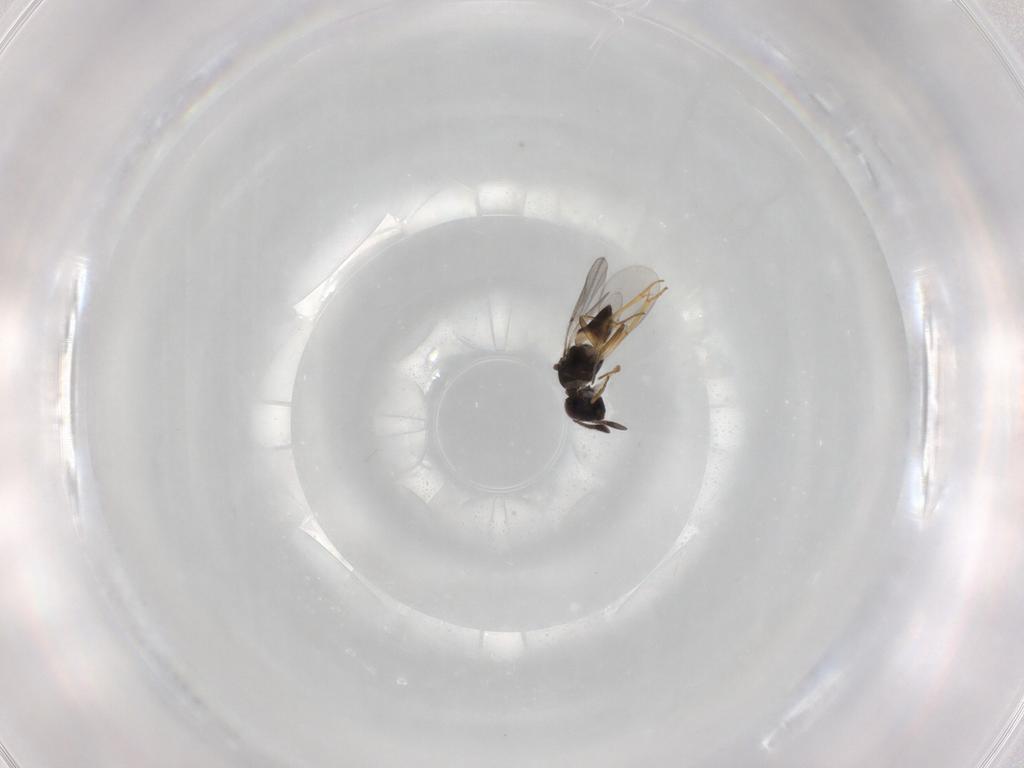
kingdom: Animalia
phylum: Arthropoda
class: Insecta
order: Hymenoptera
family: Encyrtidae
